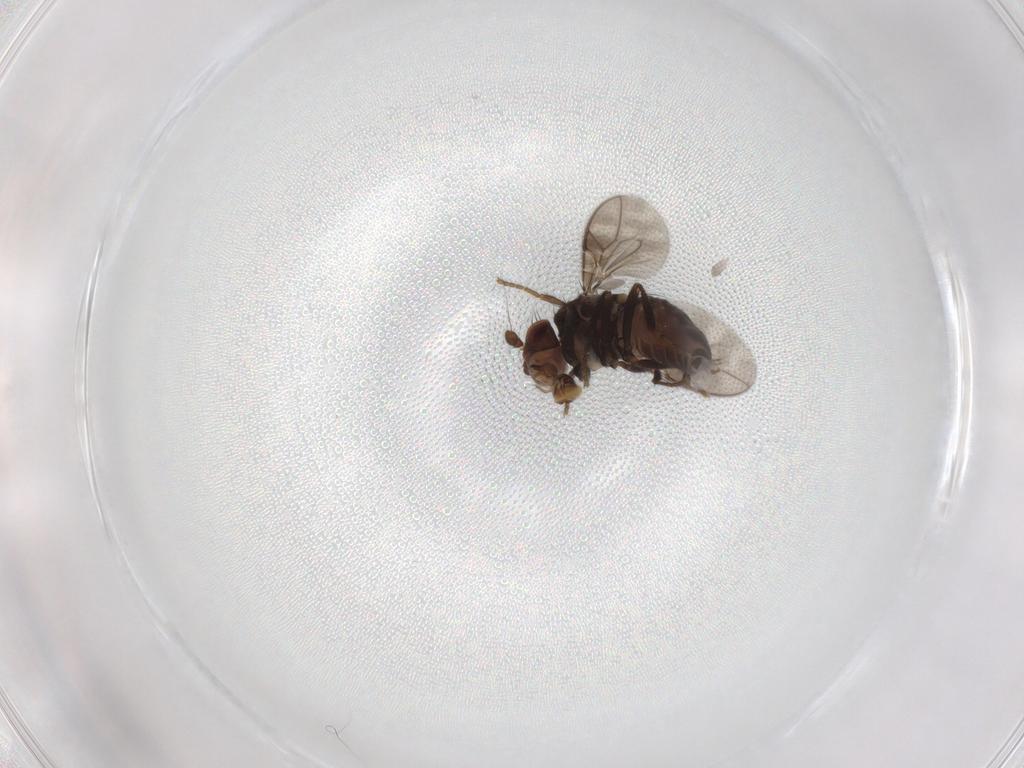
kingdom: Animalia
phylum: Arthropoda
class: Insecta
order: Diptera
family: Sphaeroceridae
